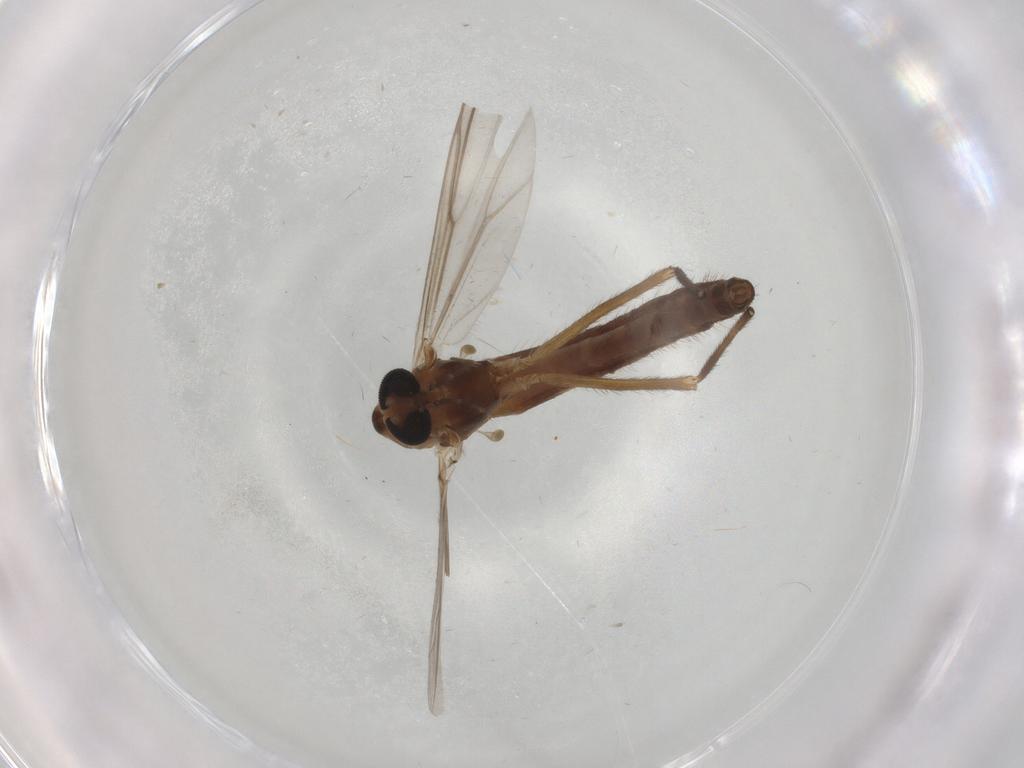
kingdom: Animalia
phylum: Arthropoda
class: Insecta
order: Diptera
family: Chironomidae
